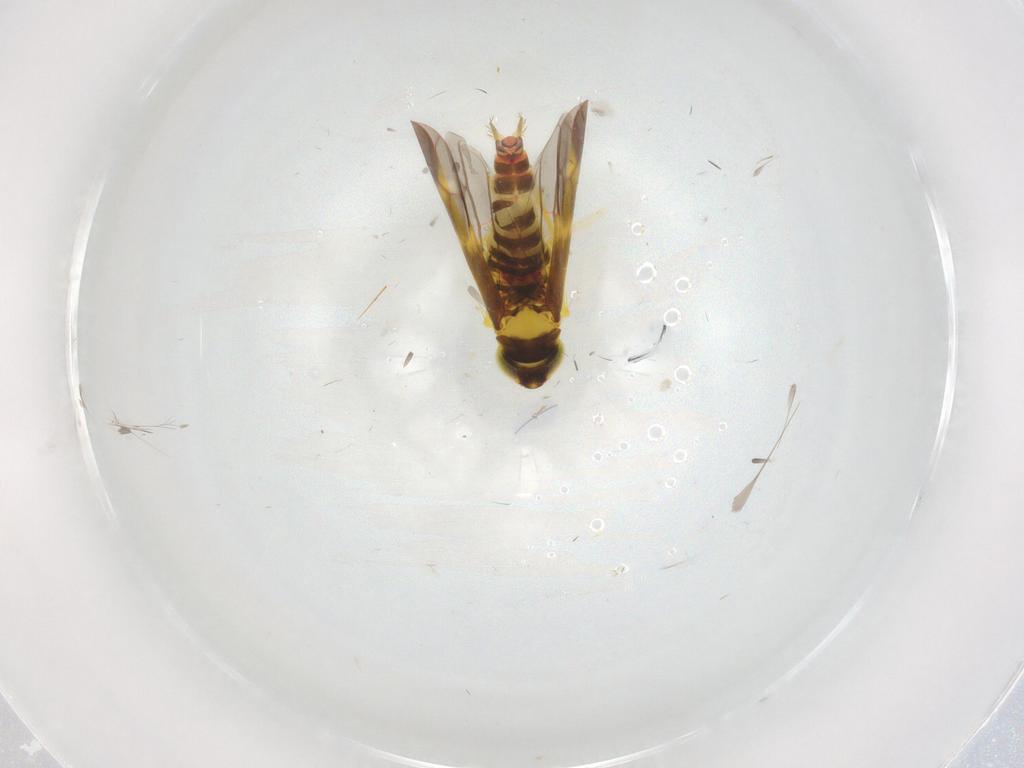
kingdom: Animalia
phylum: Arthropoda
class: Insecta
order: Hemiptera
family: Cicadellidae
